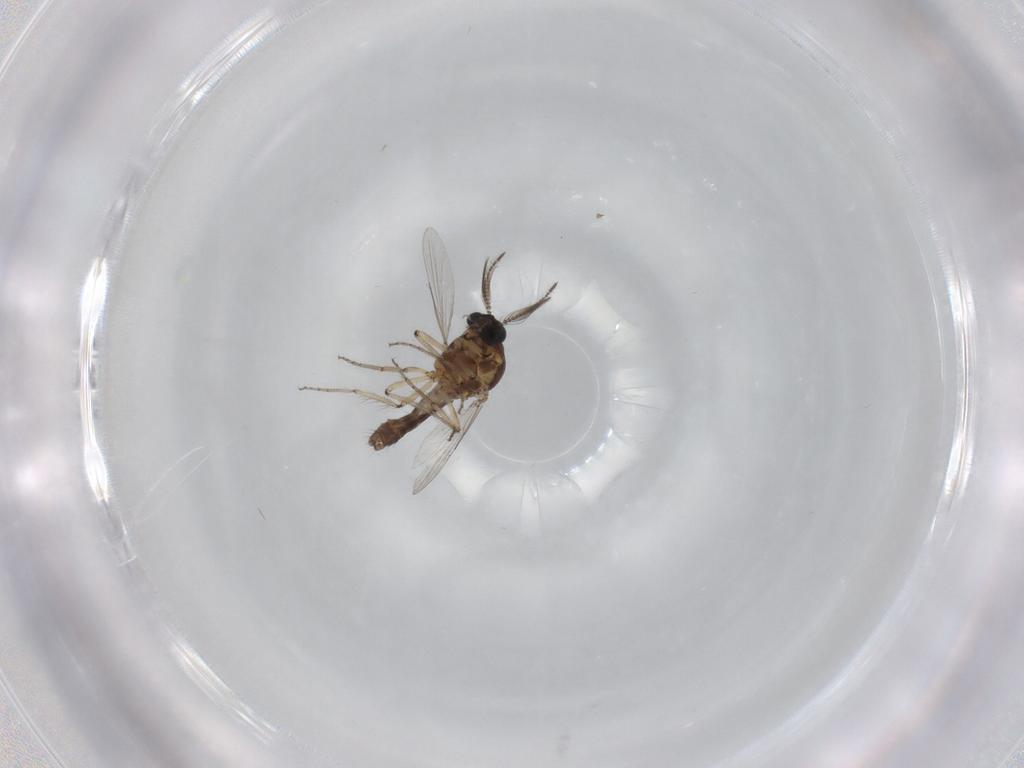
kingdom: Animalia
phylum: Arthropoda
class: Insecta
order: Diptera
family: Ceratopogonidae
